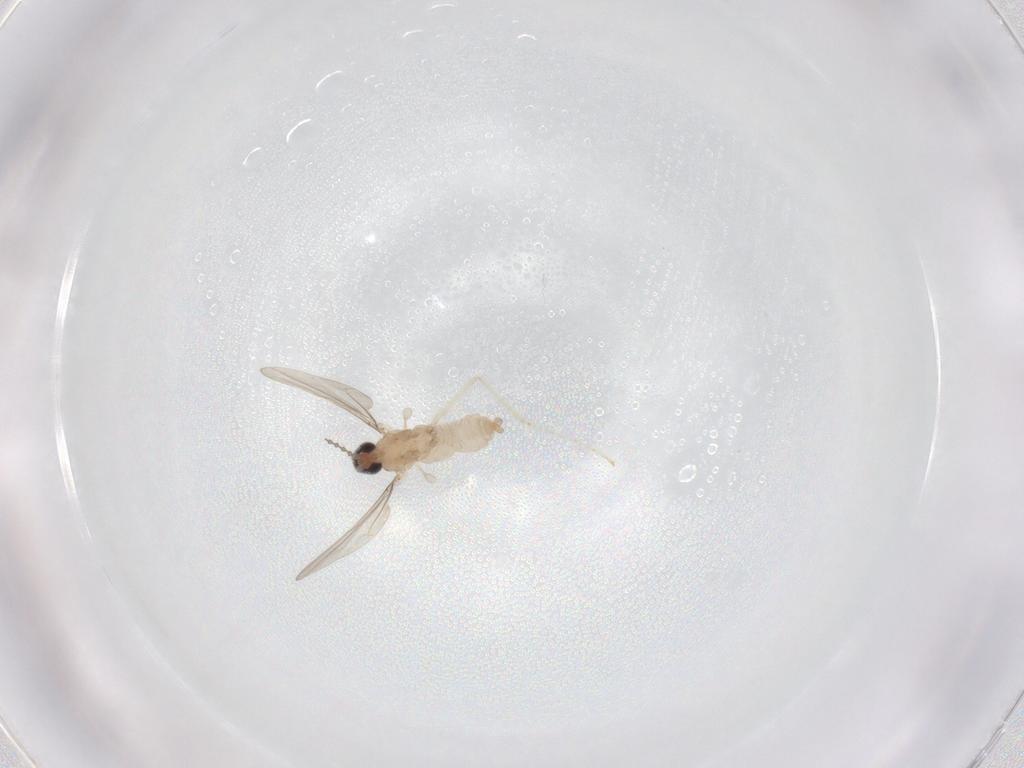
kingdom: Animalia
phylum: Arthropoda
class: Insecta
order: Diptera
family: Sciaridae
